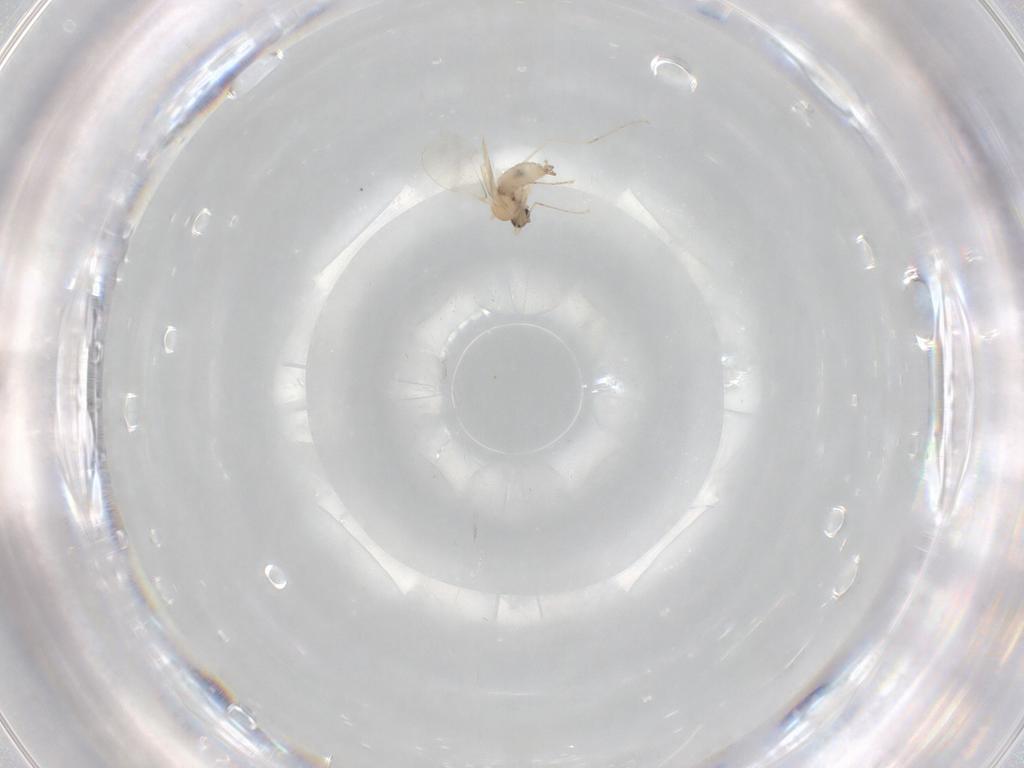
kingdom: Animalia
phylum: Arthropoda
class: Insecta
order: Diptera
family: Cecidomyiidae
